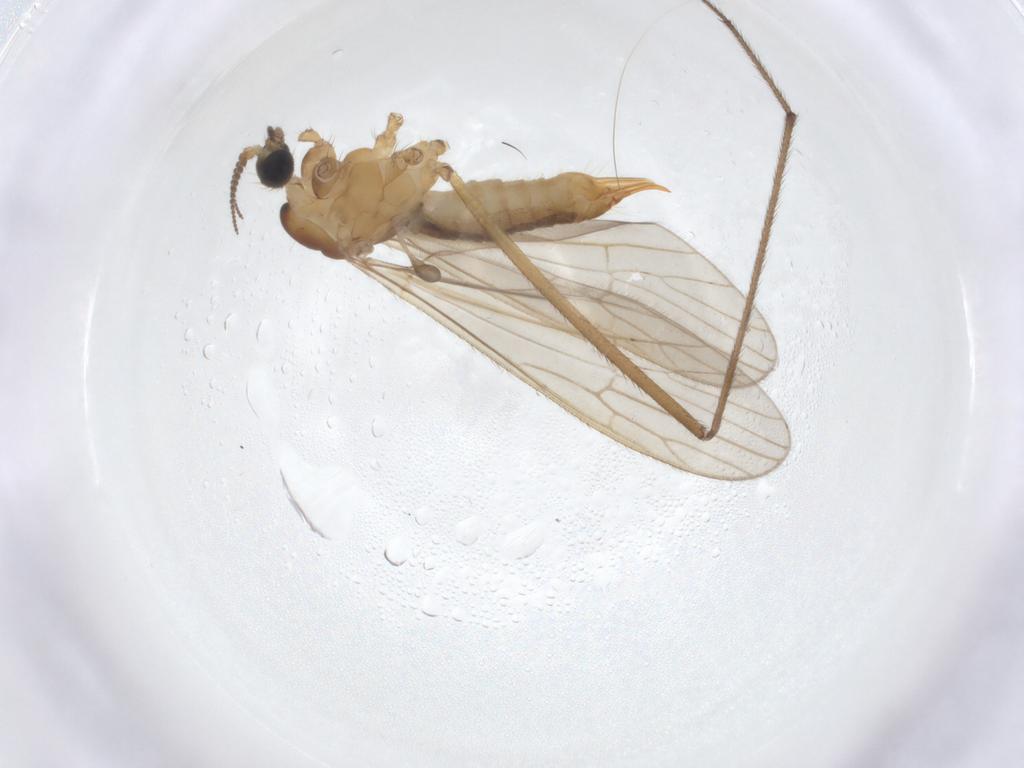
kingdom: Animalia
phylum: Arthropoda
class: Insecta
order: Diptera
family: Limoniidae
